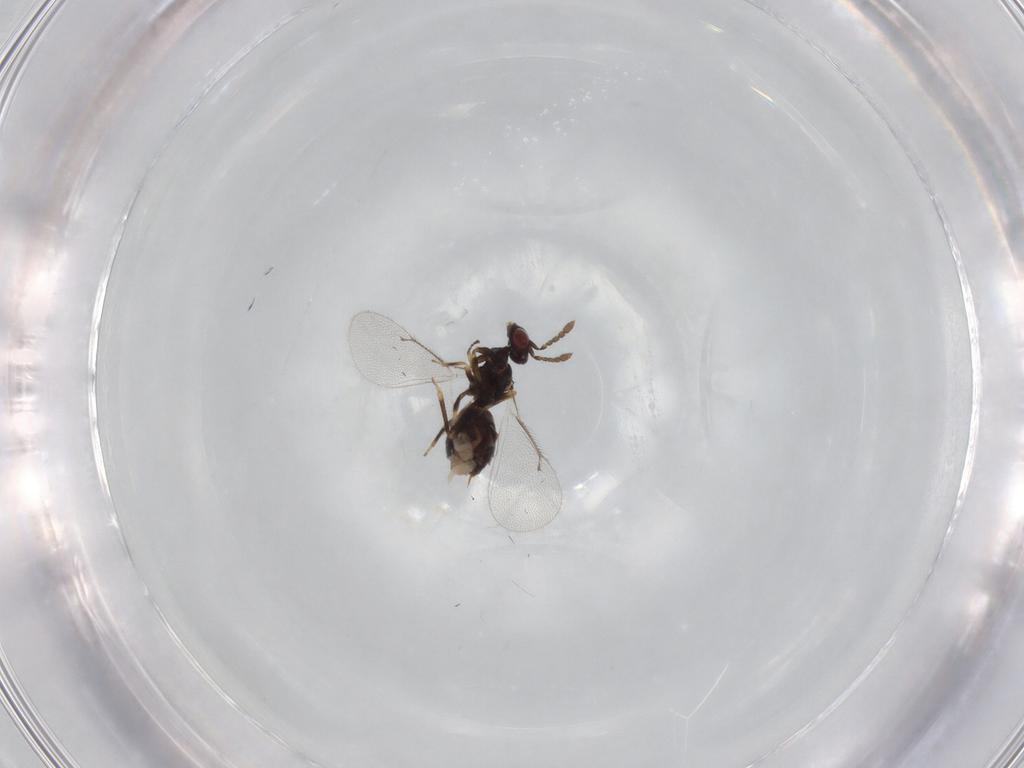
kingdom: Animalia
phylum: Arthropoda
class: Insecta
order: Hymenoptera
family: Eulophidae
